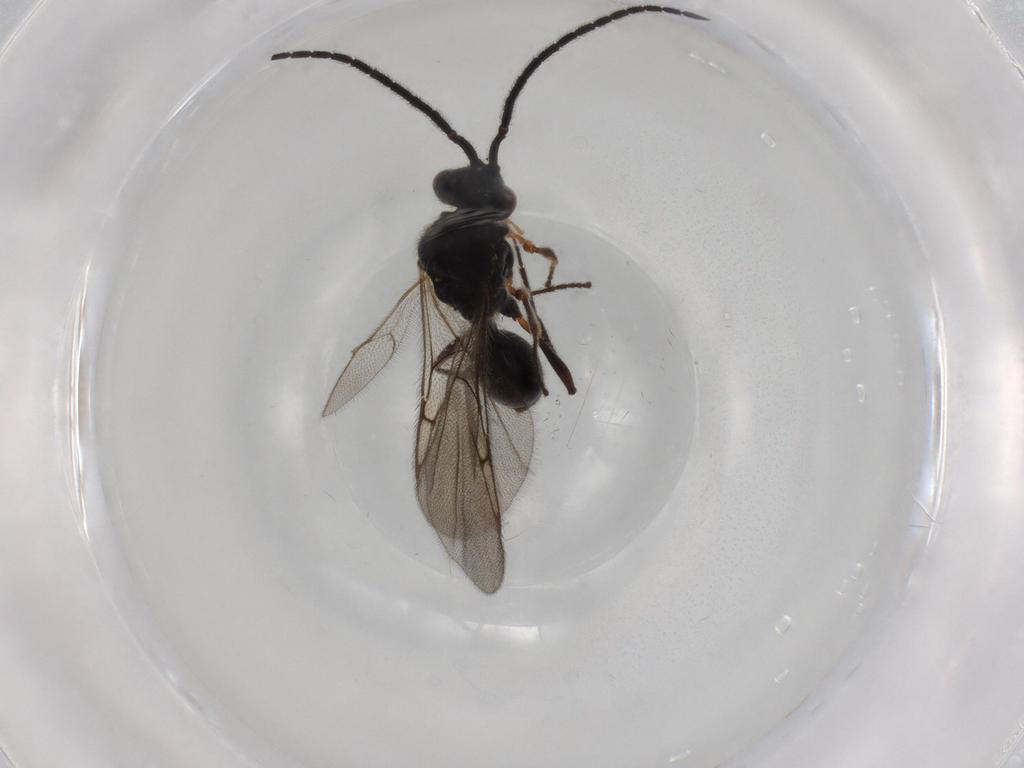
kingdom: Animalia
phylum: Arthropoda
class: Insecta
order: Hymenoptera
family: Diapriidae
